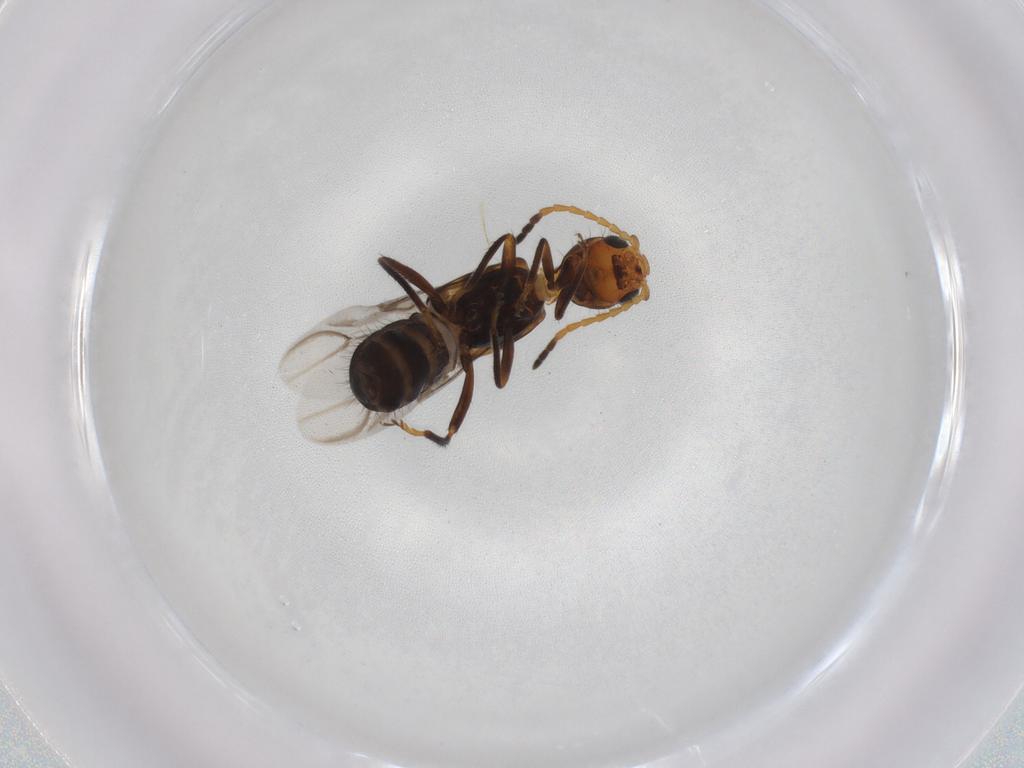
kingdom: Animalia
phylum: Arthropoda
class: Insecta
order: Coleoptera
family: Melyridae
